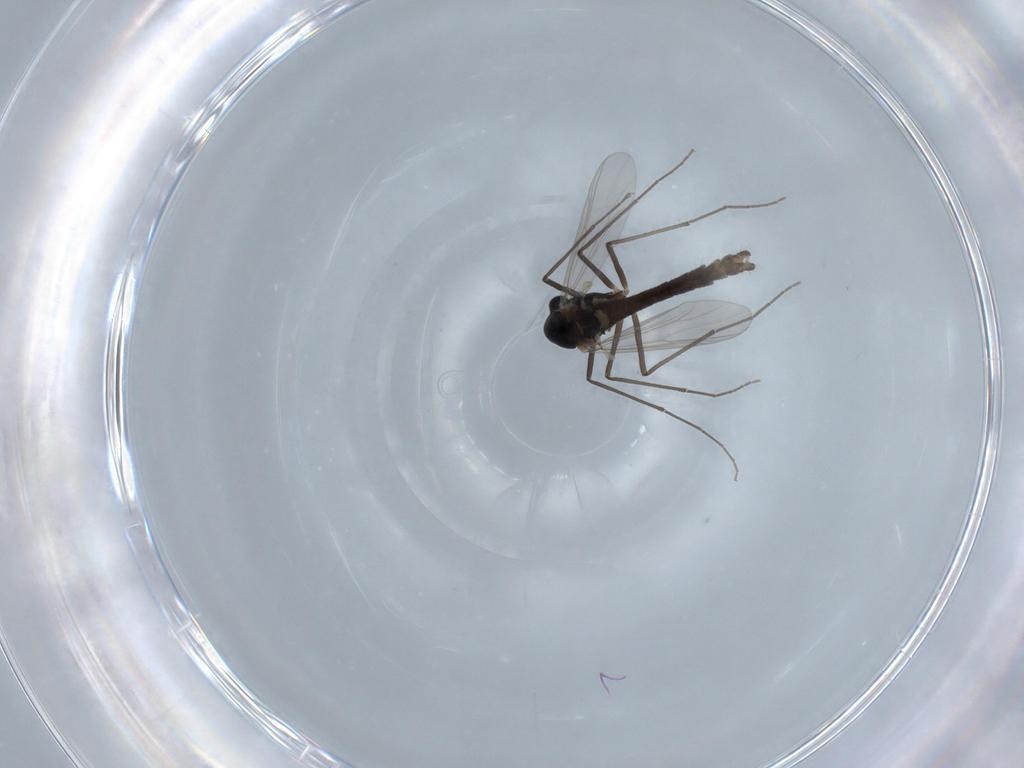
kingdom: Animalia
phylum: Arthropoda
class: Insecta
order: Diptera
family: Chironomidae
